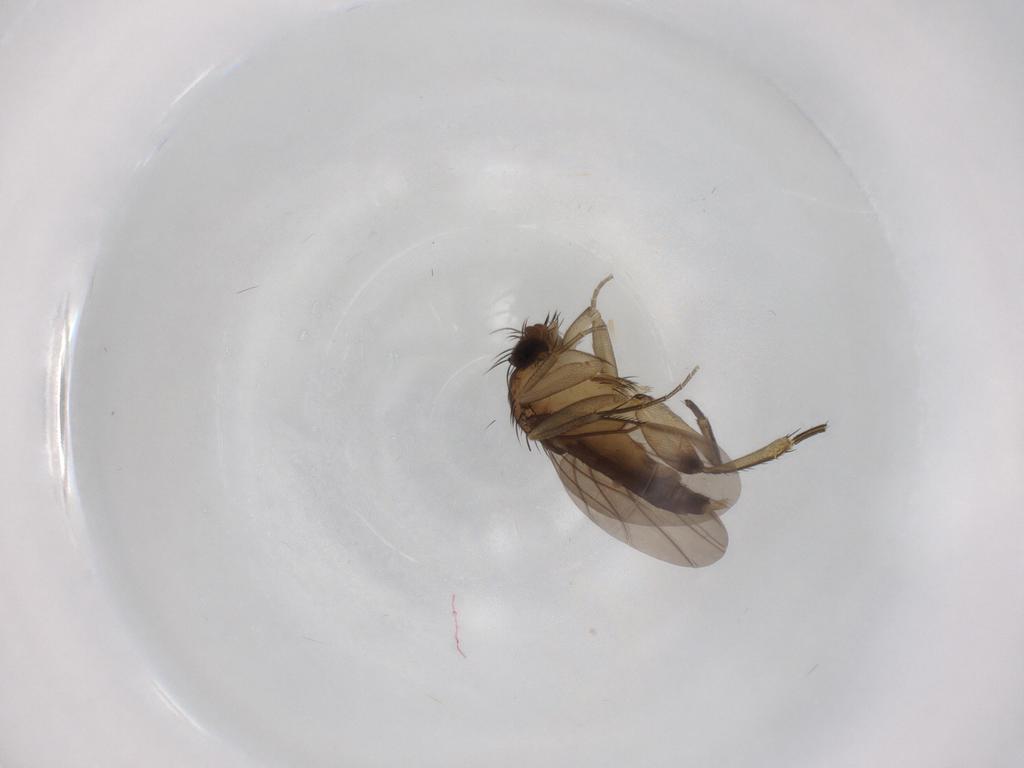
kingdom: Animalia
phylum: Arthropoda
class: Insecta
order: Diptera
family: Phoridae
